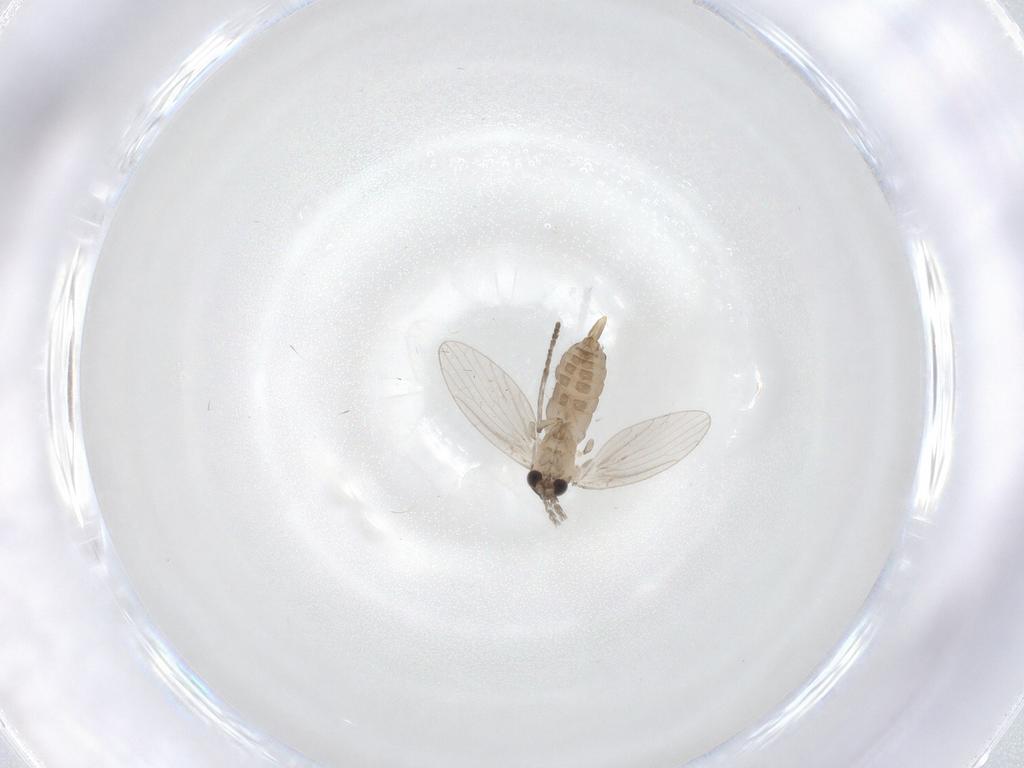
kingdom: Animalia
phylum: Arthropoda
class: Insecta
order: Diptera
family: Psychodidae
